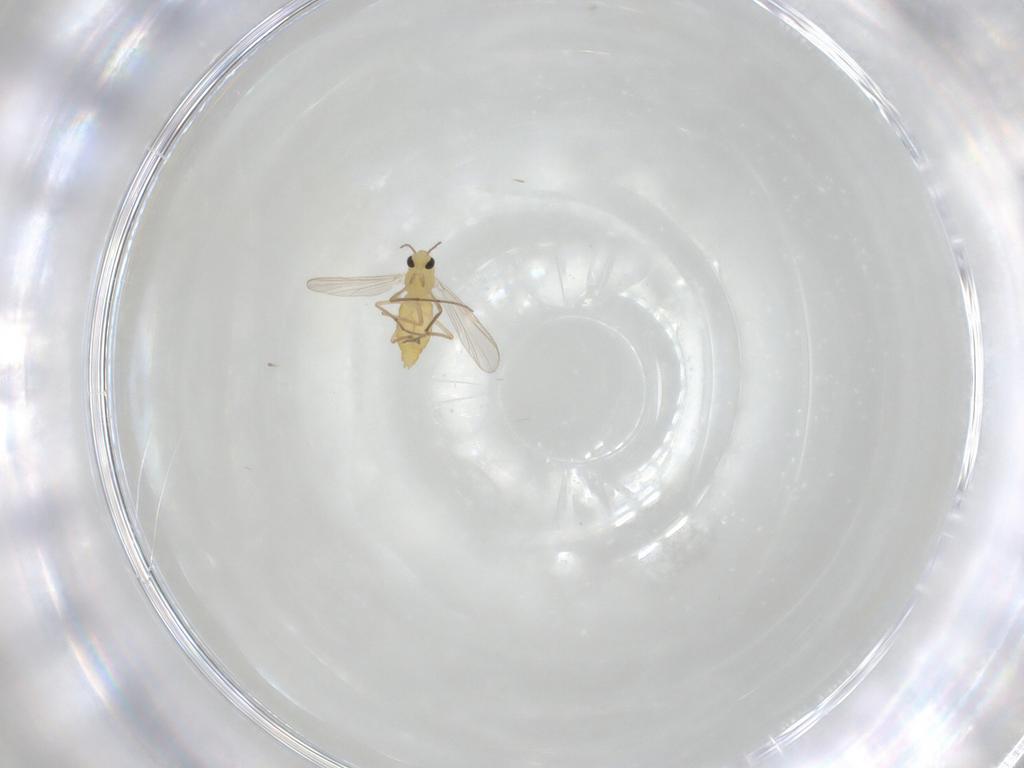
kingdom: Animalia
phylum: Arthropoda
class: Insecta
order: Diptera
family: Chironomidae
